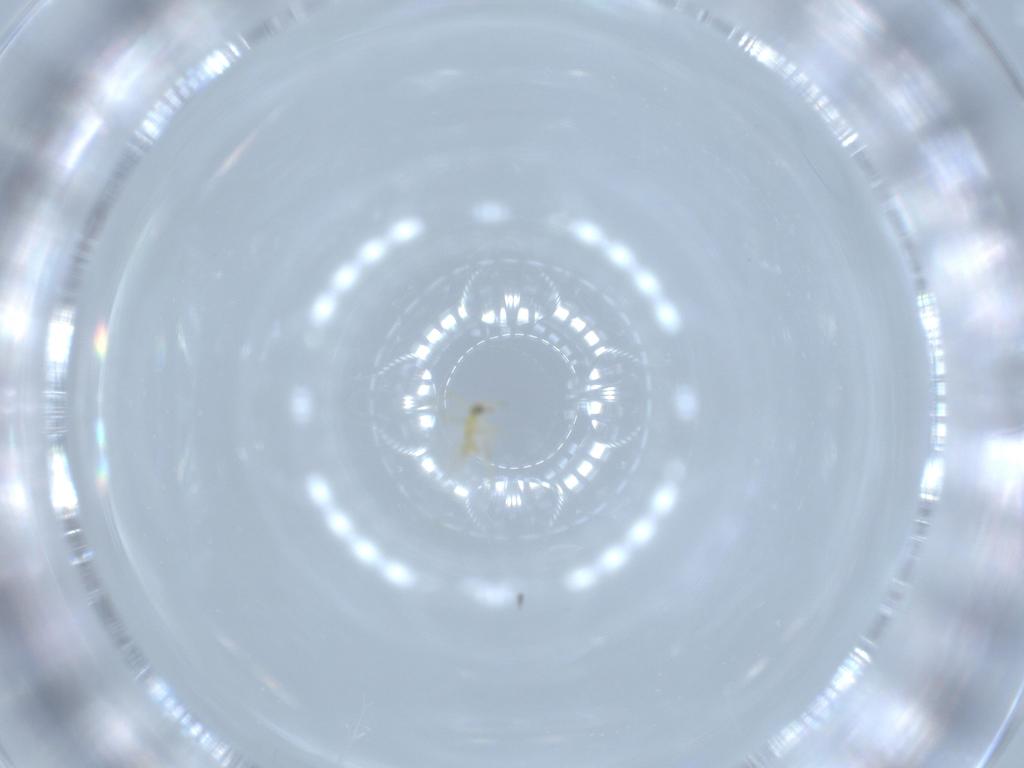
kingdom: Animalia
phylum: Arthropoda
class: Insecta
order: Hymenoptera
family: Aphelinidae
